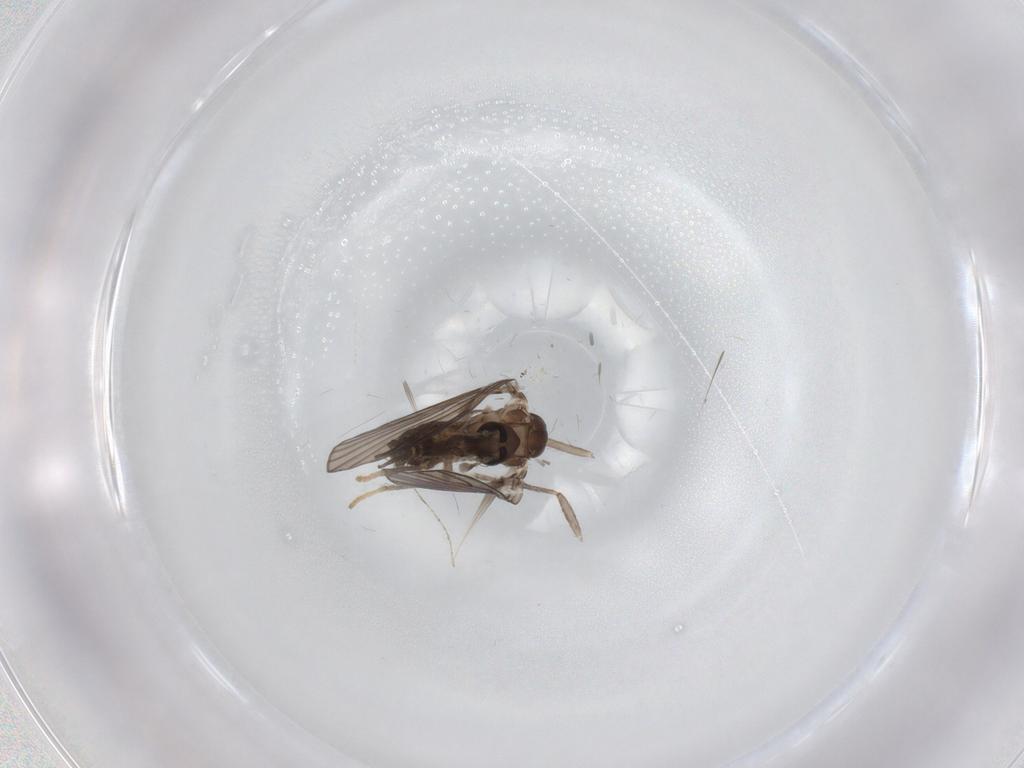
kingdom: Animalia
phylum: Arthropoda
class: Insecta
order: Diptera
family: Psychodidae
